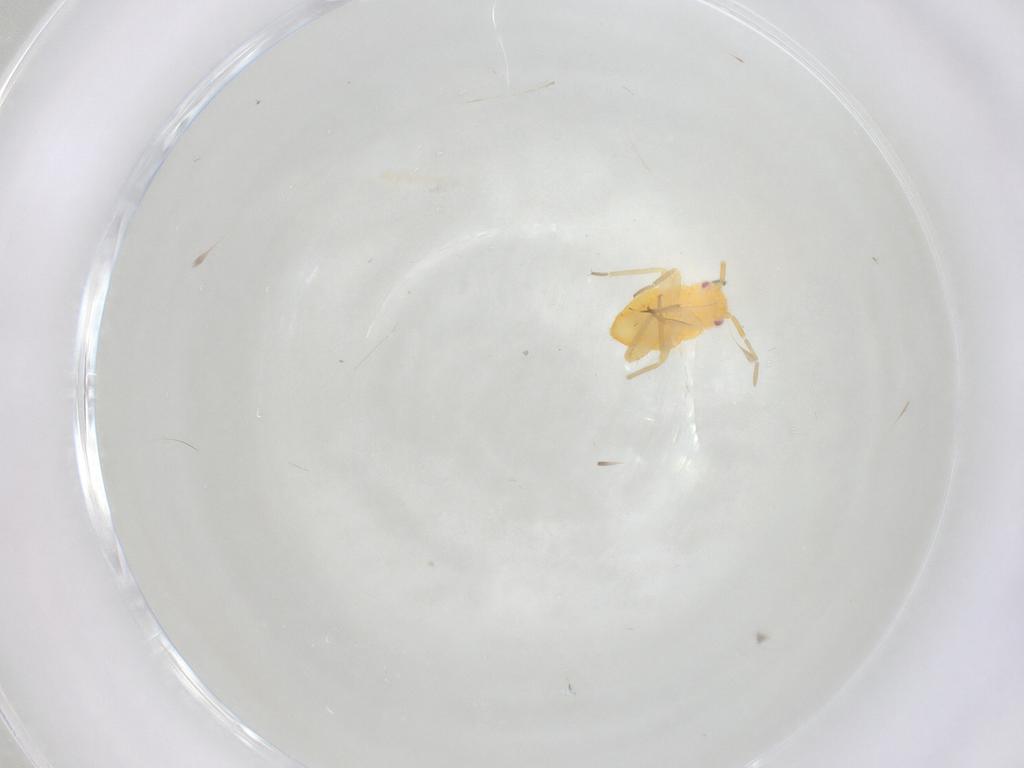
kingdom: Animalia
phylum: Arthropoda
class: Insecta
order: Hemiptera
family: Miridae
